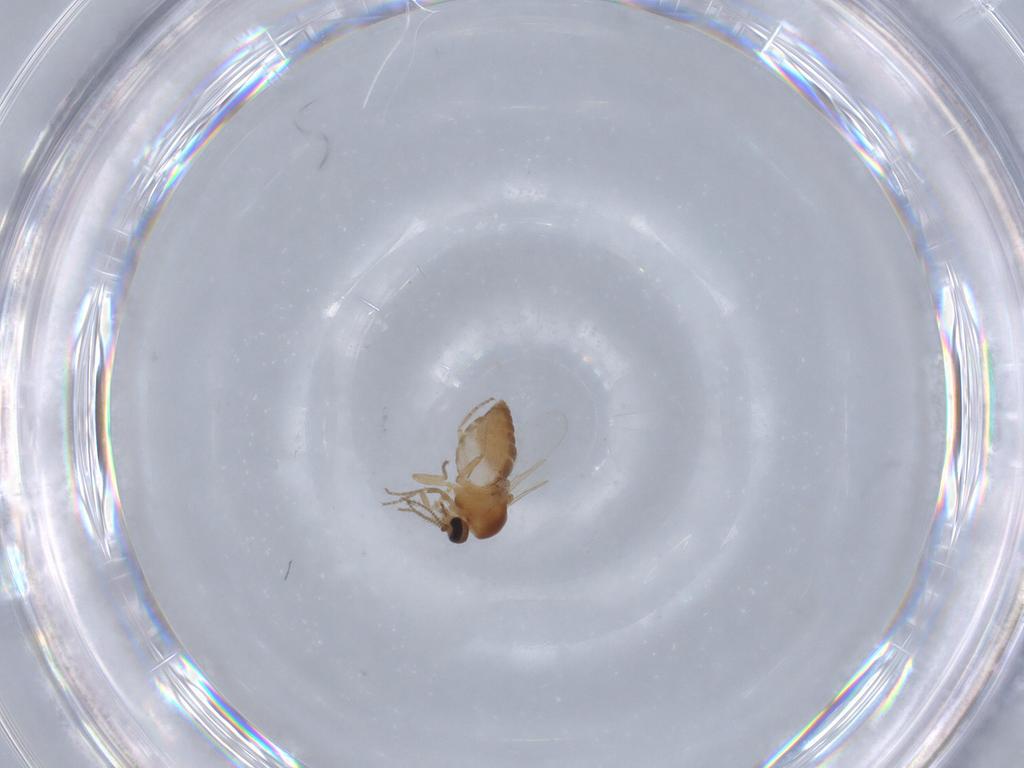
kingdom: Animalia
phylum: Arthropoda
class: Insecta
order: Diptera
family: Ceratopogonidae
